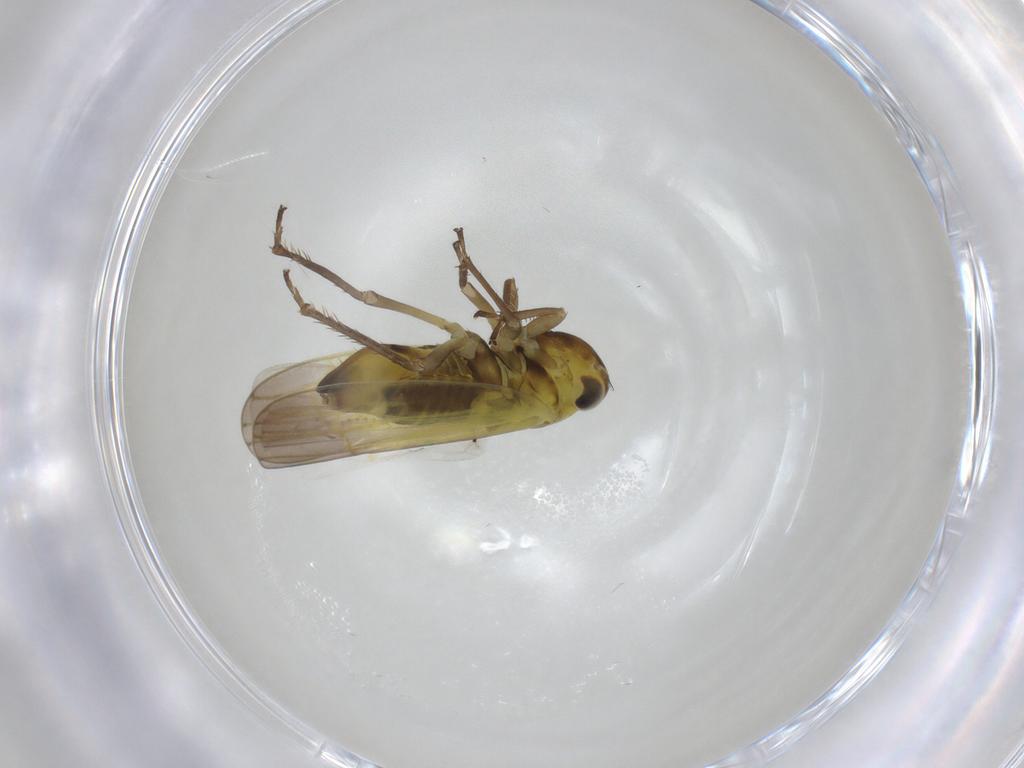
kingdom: Animalia
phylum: Arthropoda
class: Insecta
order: Hemiptera
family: Cicadellidae
